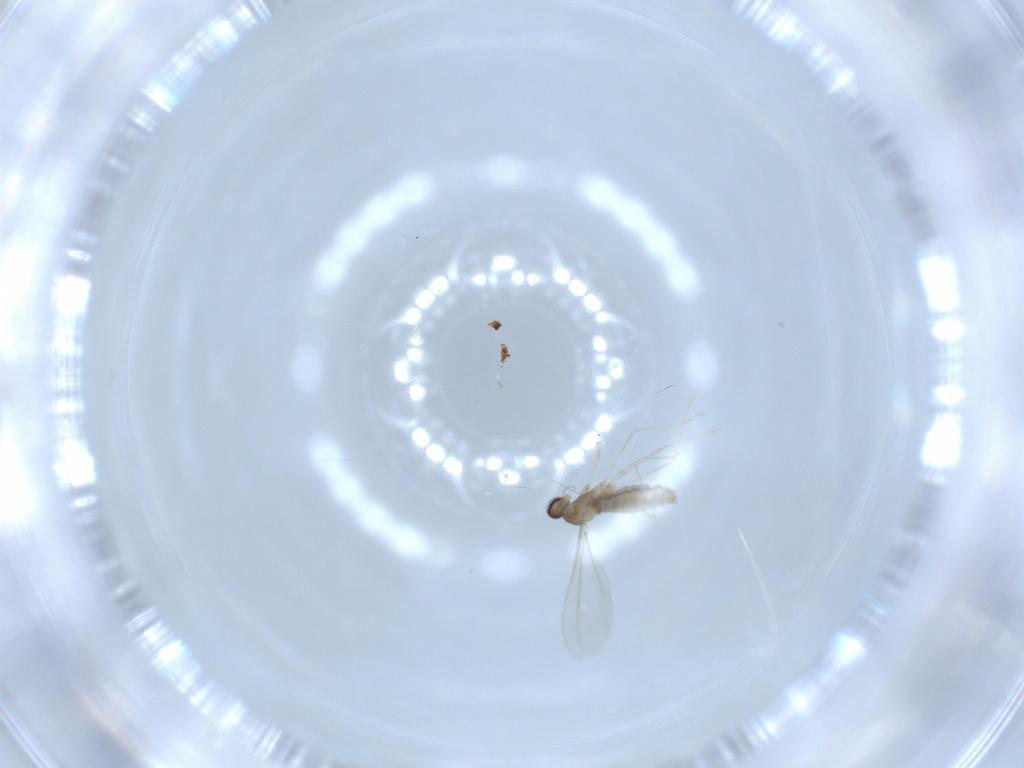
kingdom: Animalia
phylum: Arthropoda
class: Insecta
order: Diptera
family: Cecidomyiidae
